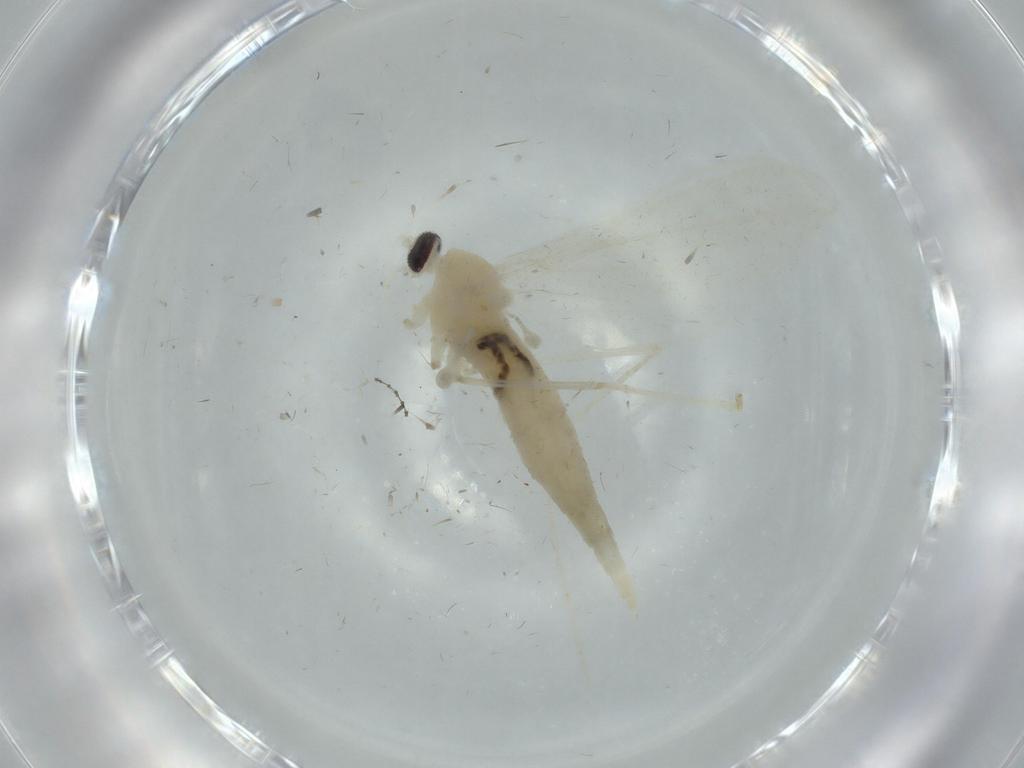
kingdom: Animalia
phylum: Arthropoda
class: Insecta
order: Diptera
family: Cecidomyiidae
